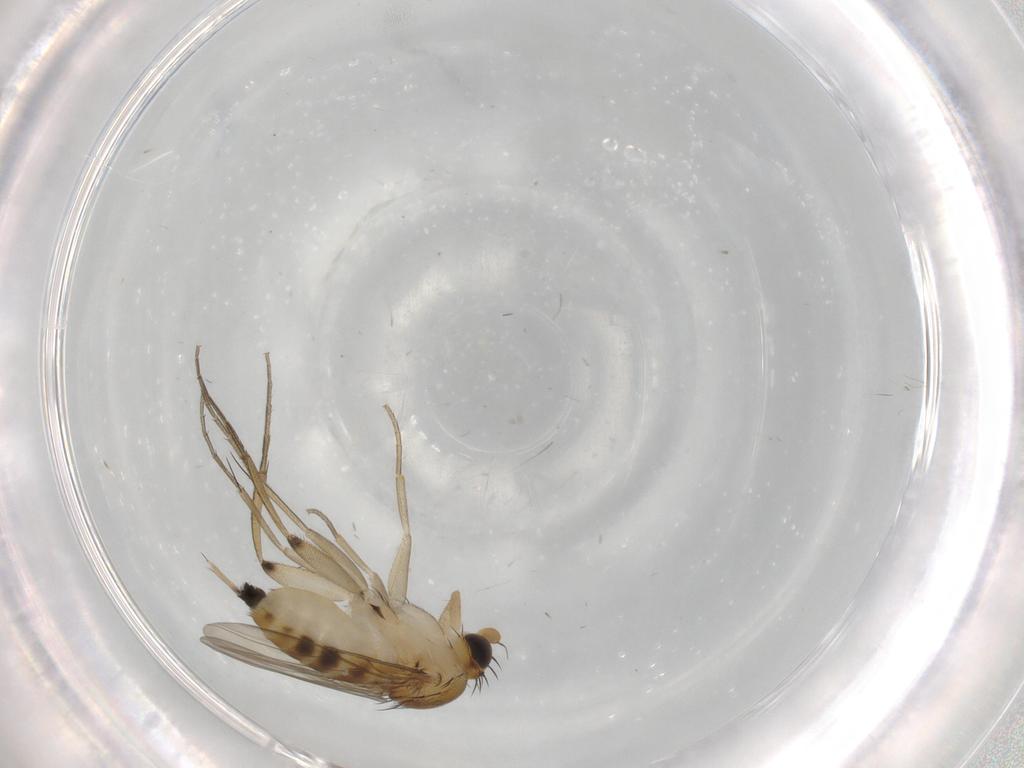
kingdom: Animalia
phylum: Arthropoda
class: Insecta
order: Diptera
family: Phoridae
